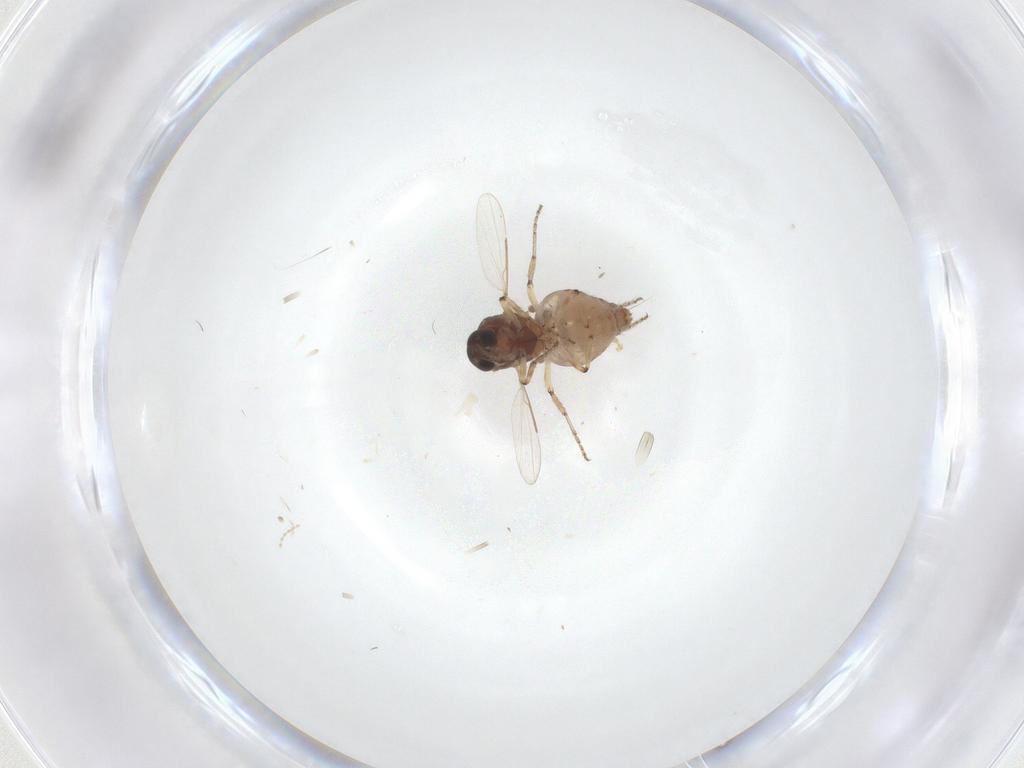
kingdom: Animalia
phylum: Arthropoda
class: Insecta
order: Diptera
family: Ceratopogonidae
